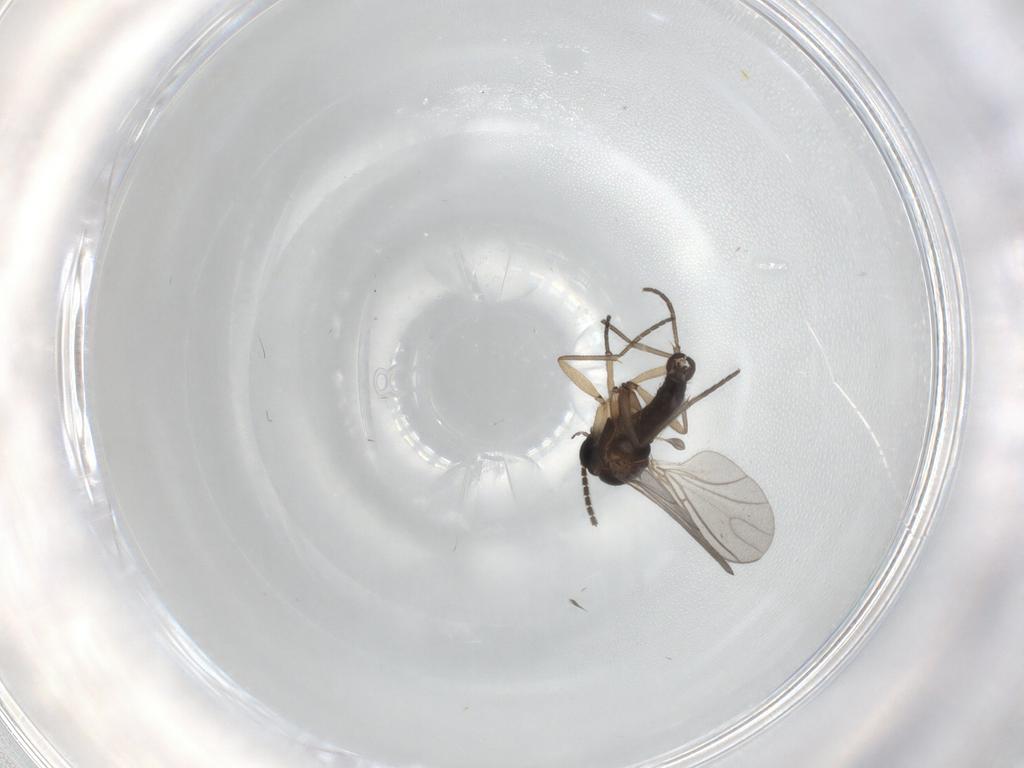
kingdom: Animalia
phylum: Arthropoda
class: Insecta
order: Diptera
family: Sciaridae
